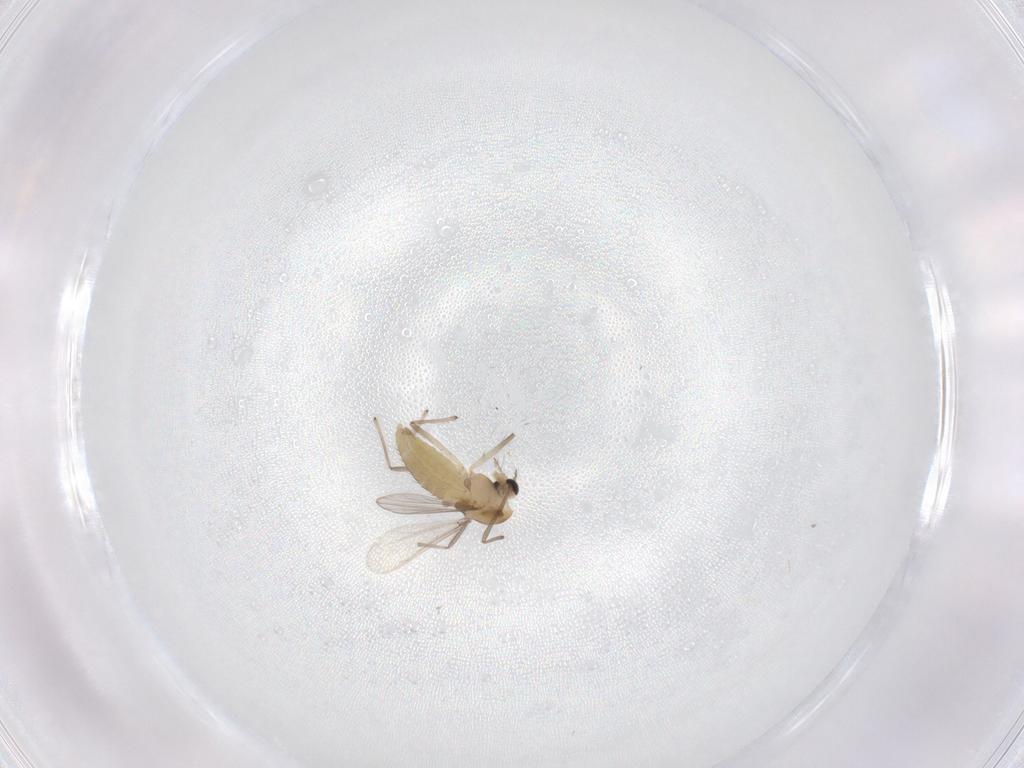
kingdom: Animalia
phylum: Arthropoda
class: Insecta
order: Diptera
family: Chironomidae
